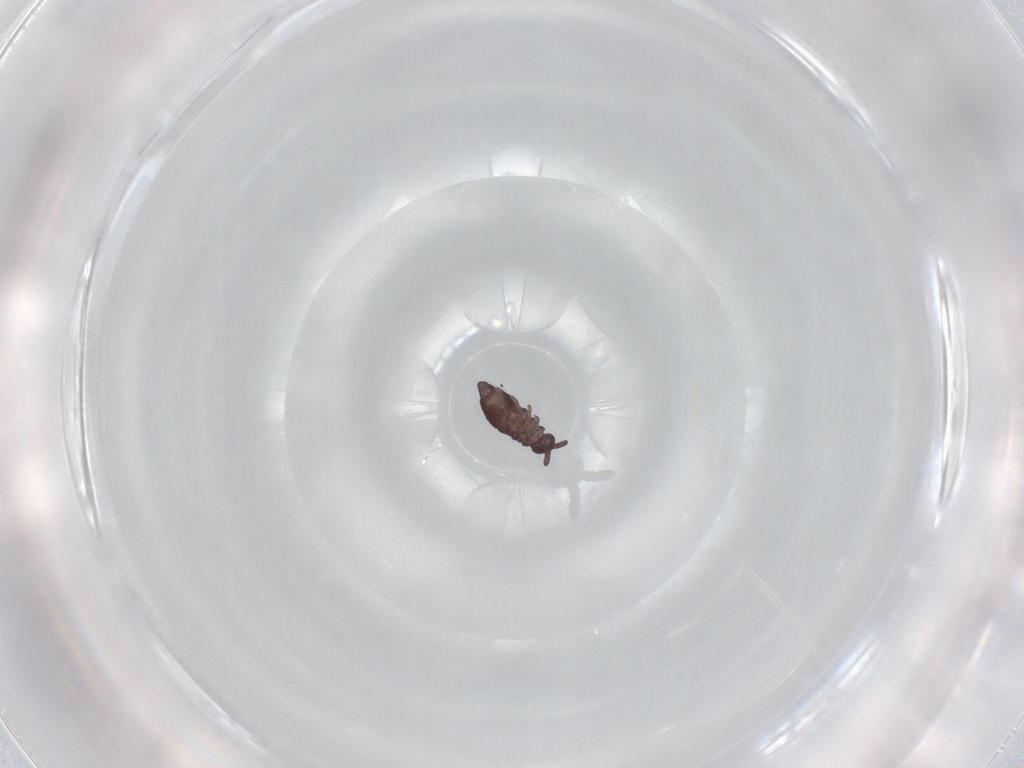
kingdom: Animalia
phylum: Arthropoda
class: Collembola
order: Poduromorpha
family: Hypogastruridae
